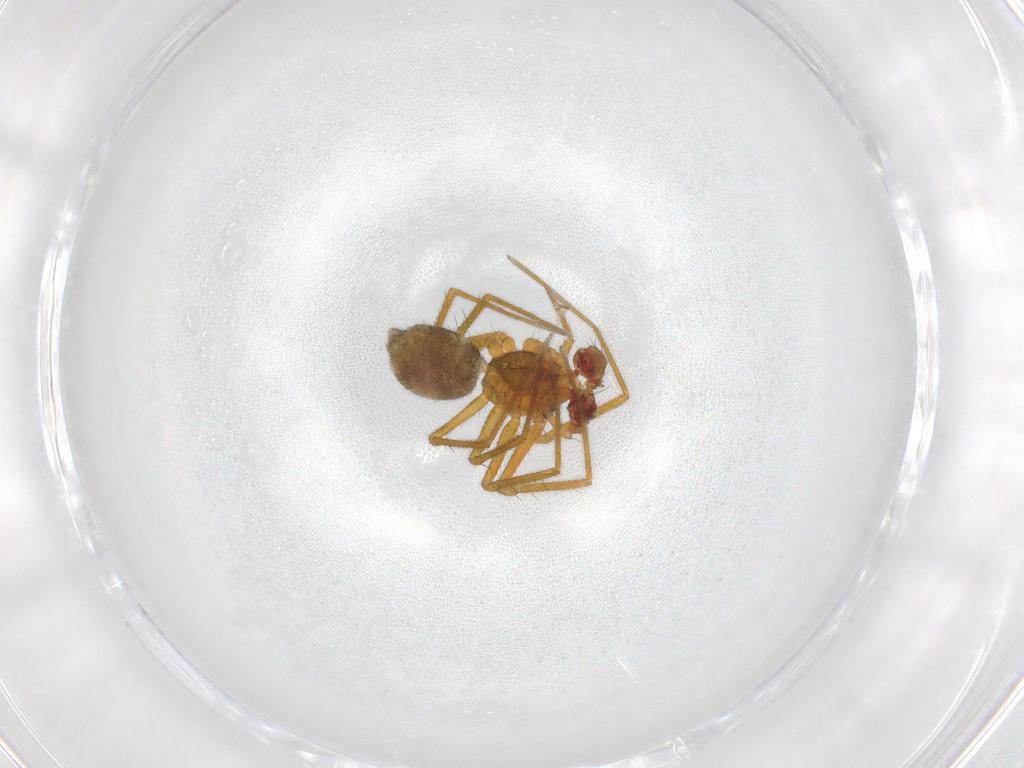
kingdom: Animalia
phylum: Arthropoda
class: Arachnida
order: Araneae
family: Linyphiidae
